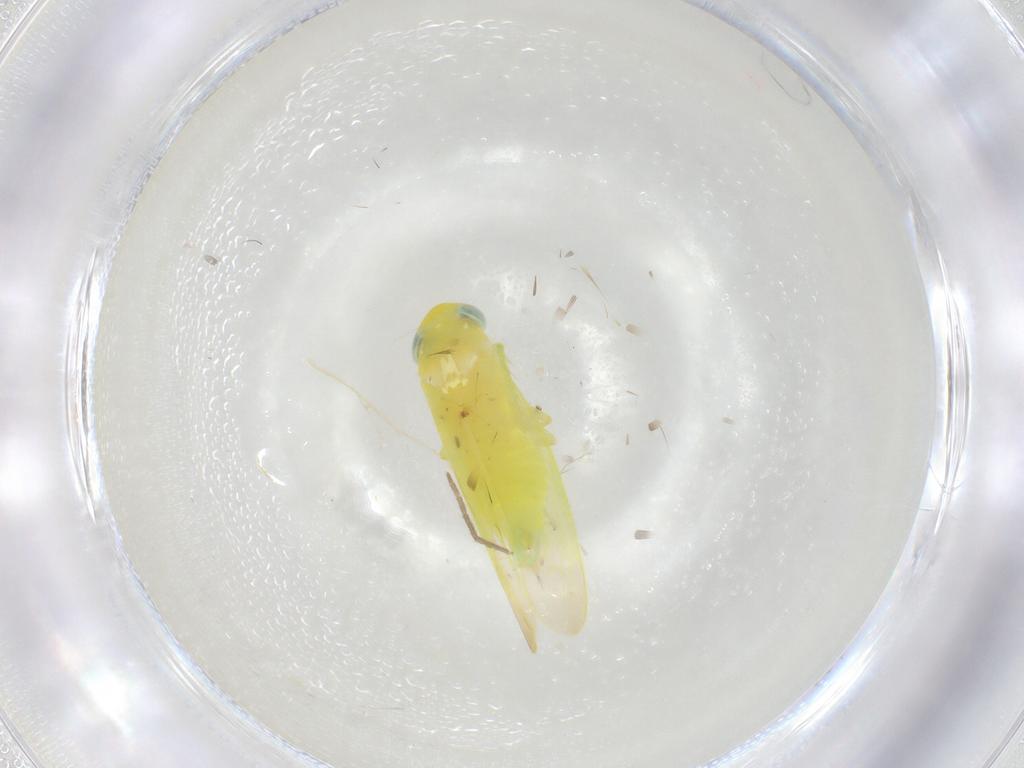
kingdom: Animalia
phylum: Arthropoda
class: Insecta
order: Hemiptera
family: Cicadellidae
